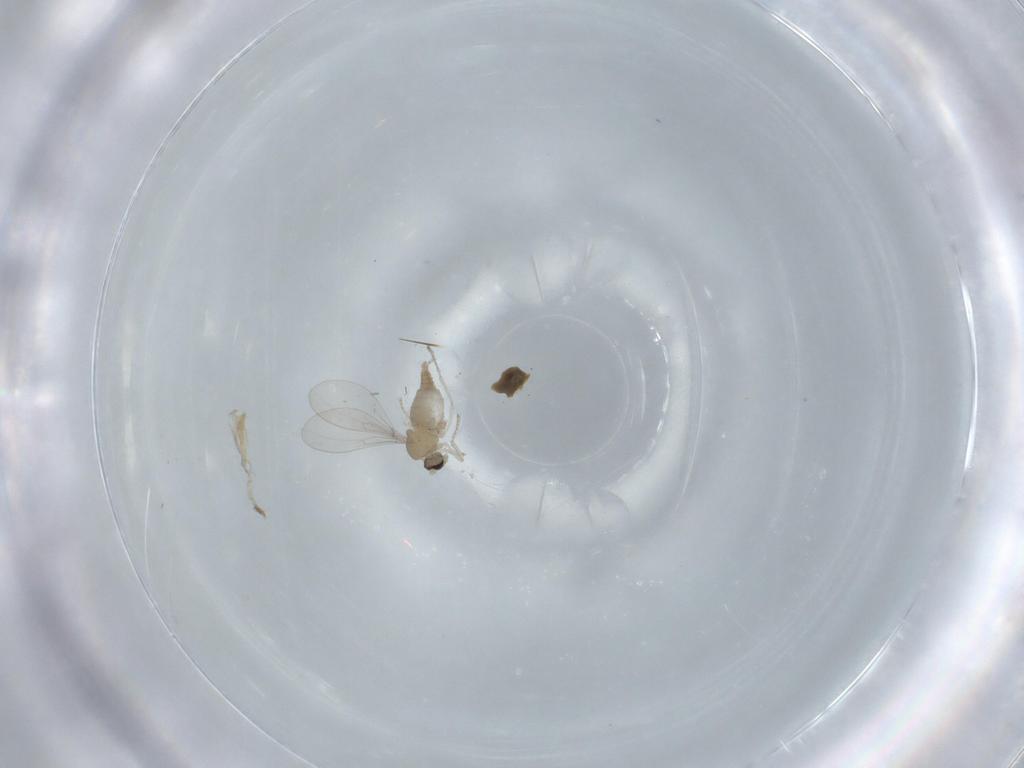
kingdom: Animalia
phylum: Arthropoda
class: Insecta
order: Diptera
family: Cecidomyiidae
